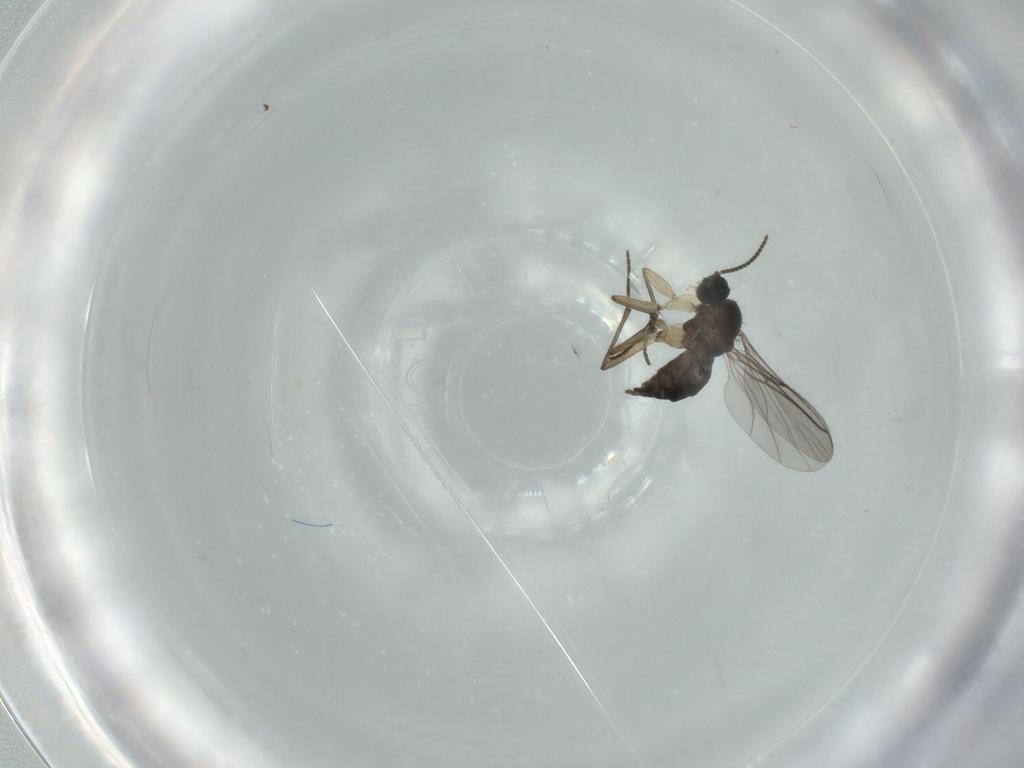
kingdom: Animalia
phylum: Arthropoda
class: Insecta
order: Diptera
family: Sciaridae
